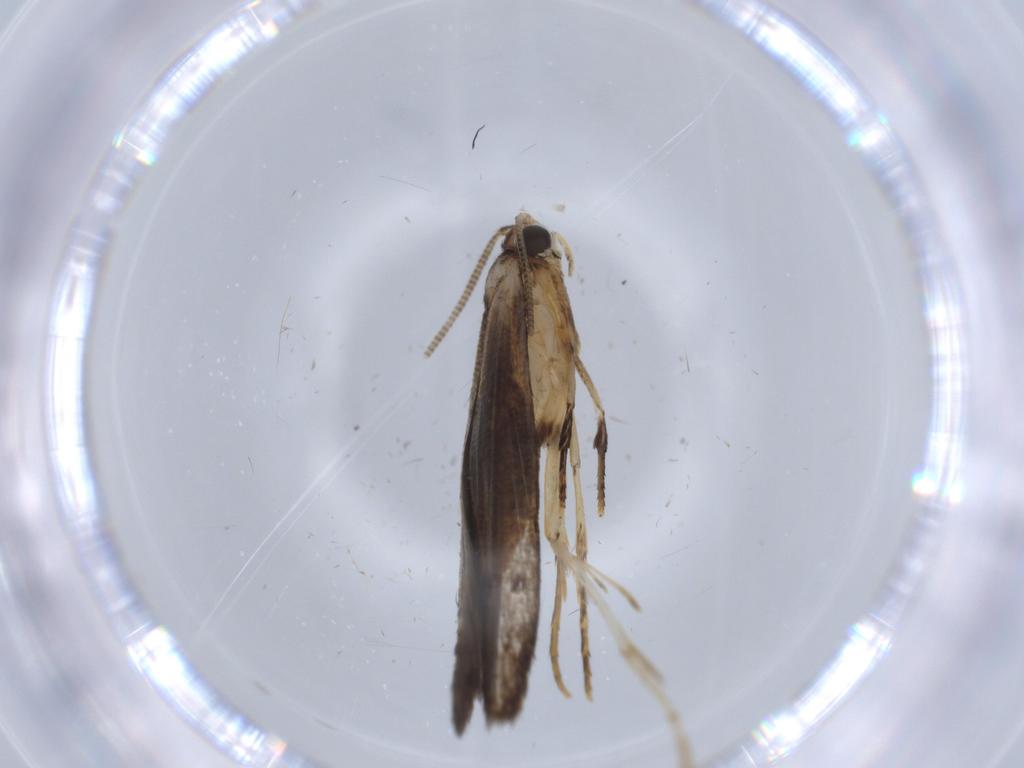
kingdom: Animalia
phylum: Arthropoda
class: Insecta
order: Lepidoptera
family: Tineidae
